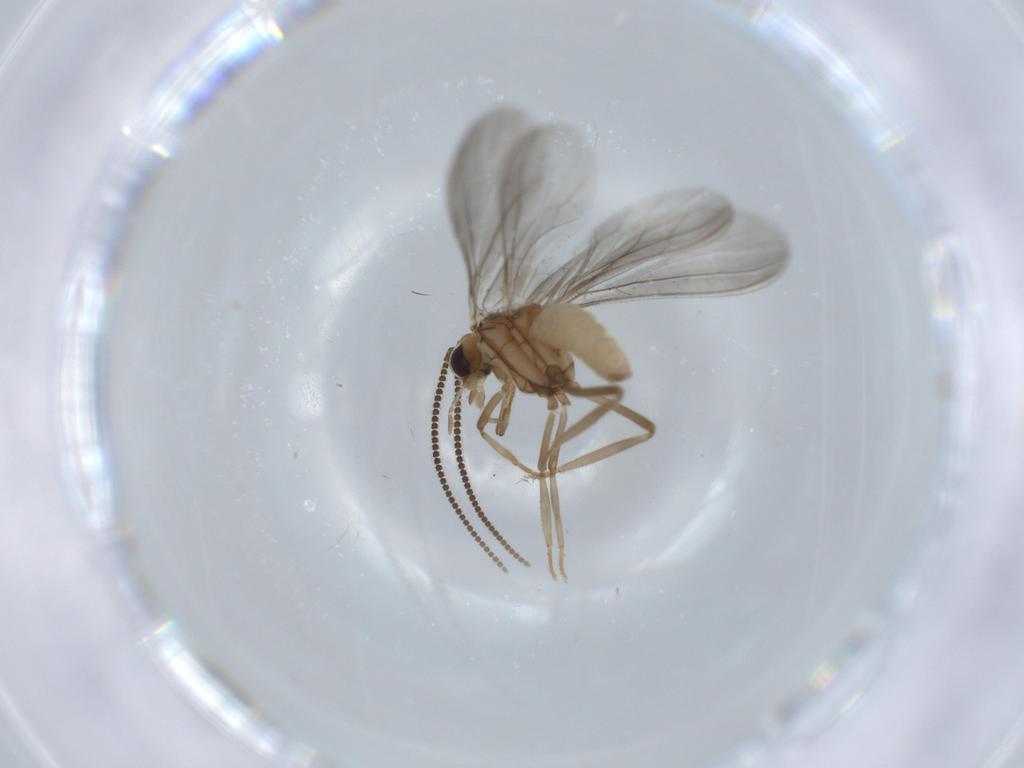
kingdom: Animalia
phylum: Arthropoda
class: Insecta
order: Neuroptera
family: Coniopterygidae
